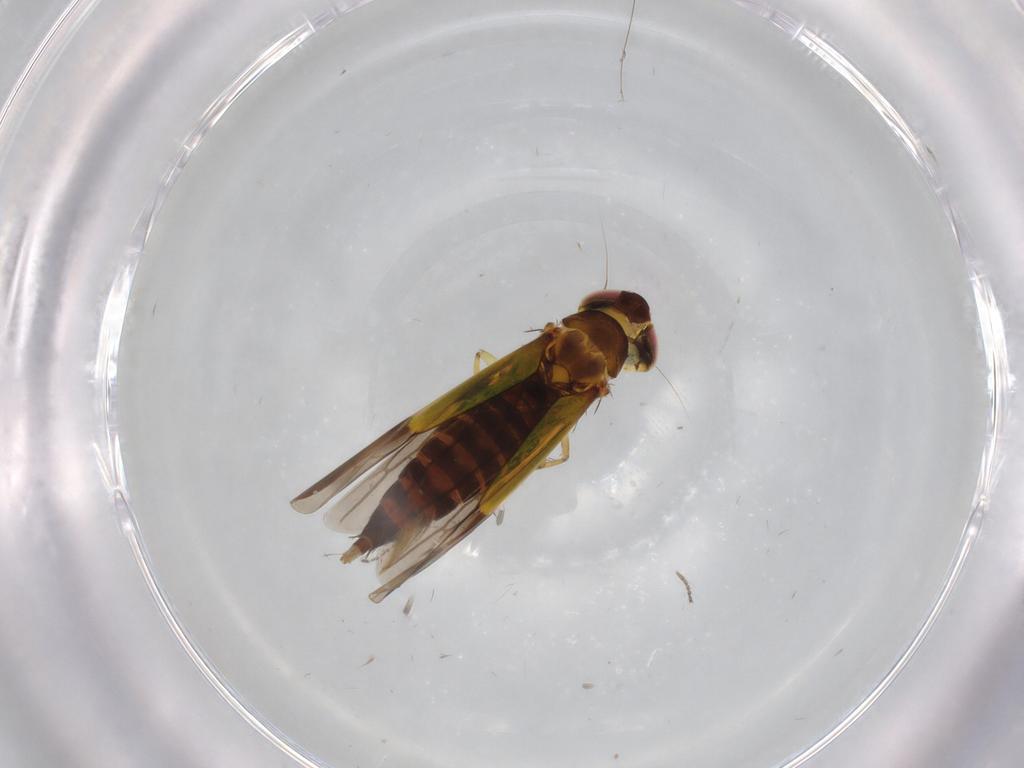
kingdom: Animalia
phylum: Arthropoda
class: Insecta
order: Hemiptera
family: Cicadellidae
